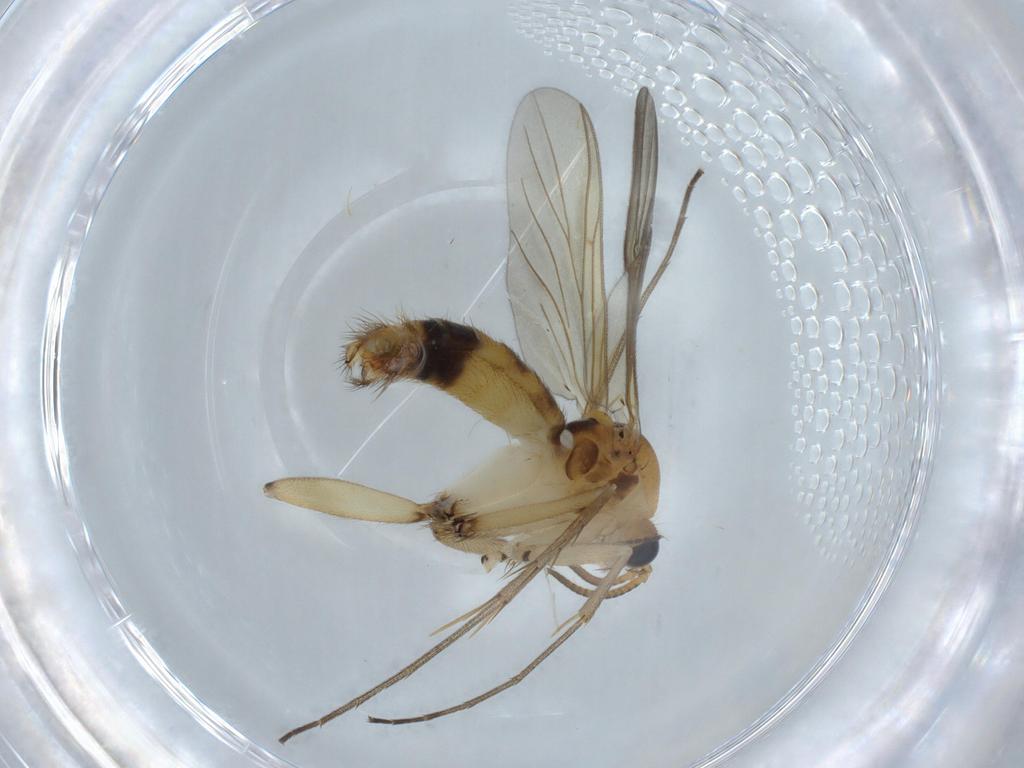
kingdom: Animalia
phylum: Arthropoda
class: Insecta
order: Diptera
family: Sciaridae
